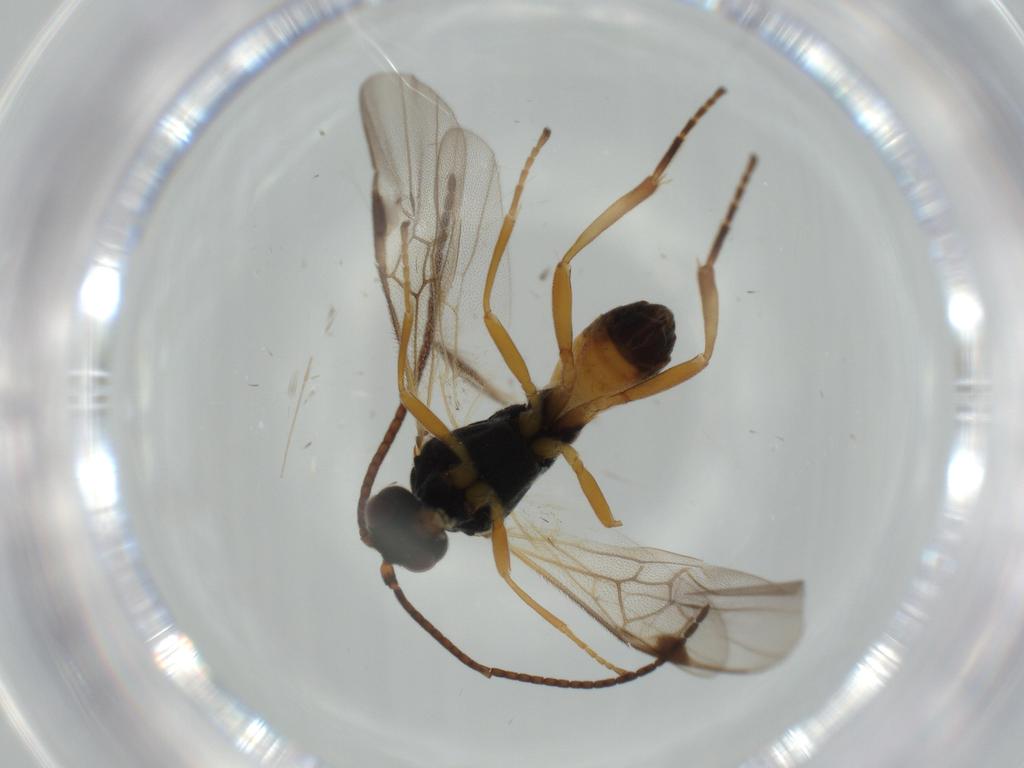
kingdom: Animalia
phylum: Arthropoda
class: Insecta
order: Hymenoptera
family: Braconidae
